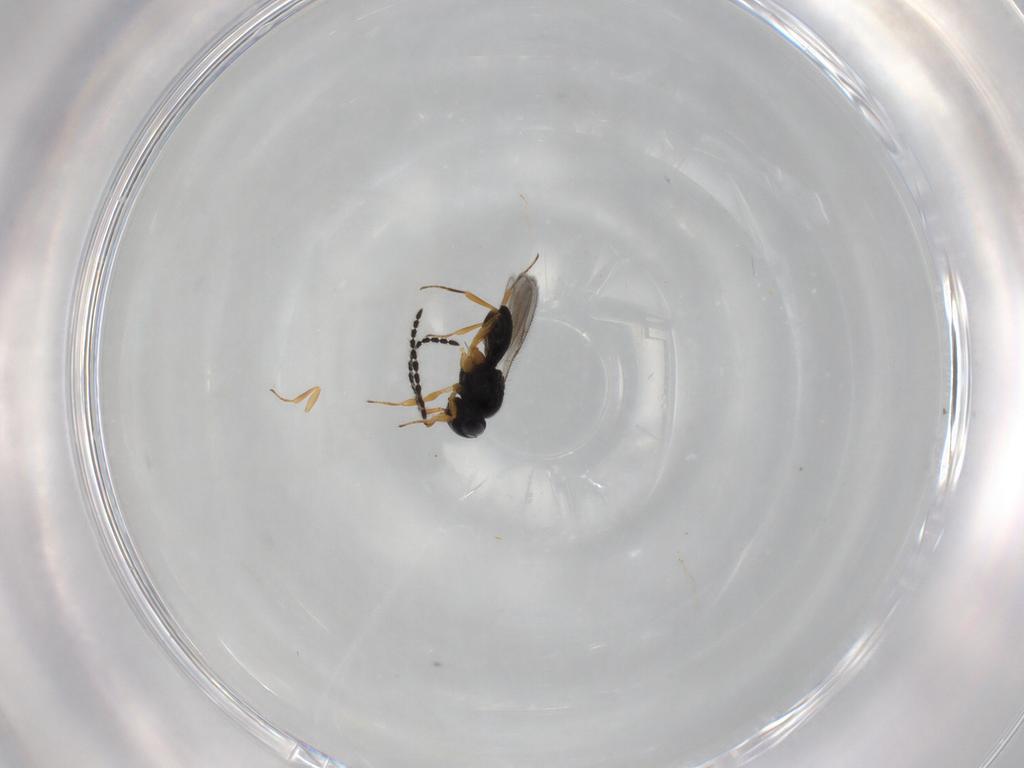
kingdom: Animalia
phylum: Arthropoda
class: Insecta
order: Hymenoptera
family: Scelionidae
